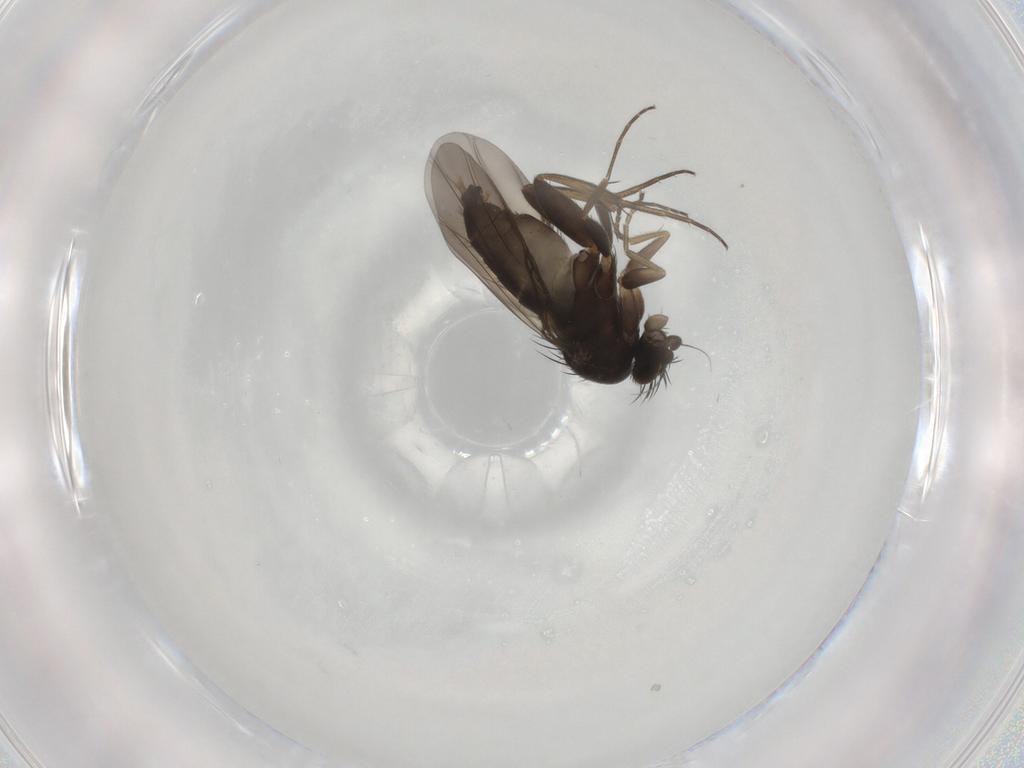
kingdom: Animalia
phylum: Arthropoda
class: Insecta
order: Diptera
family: Phoridae
